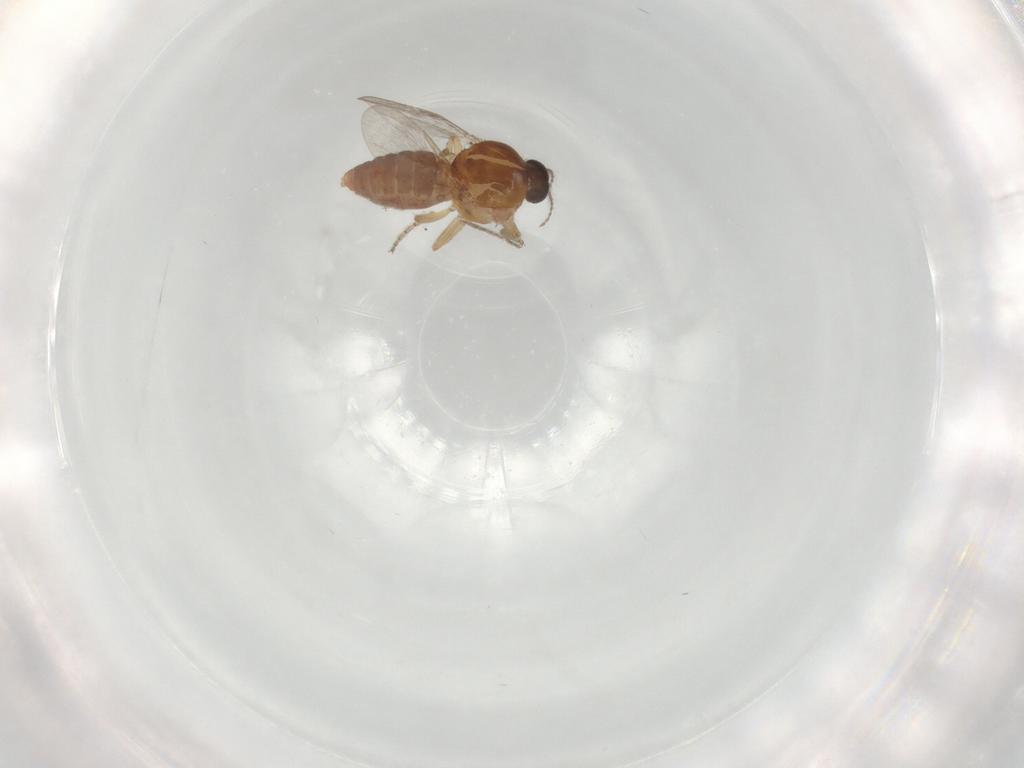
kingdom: Animalia
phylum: Arthropoda
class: Insecta
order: Diptera
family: Ceratopogonidae
